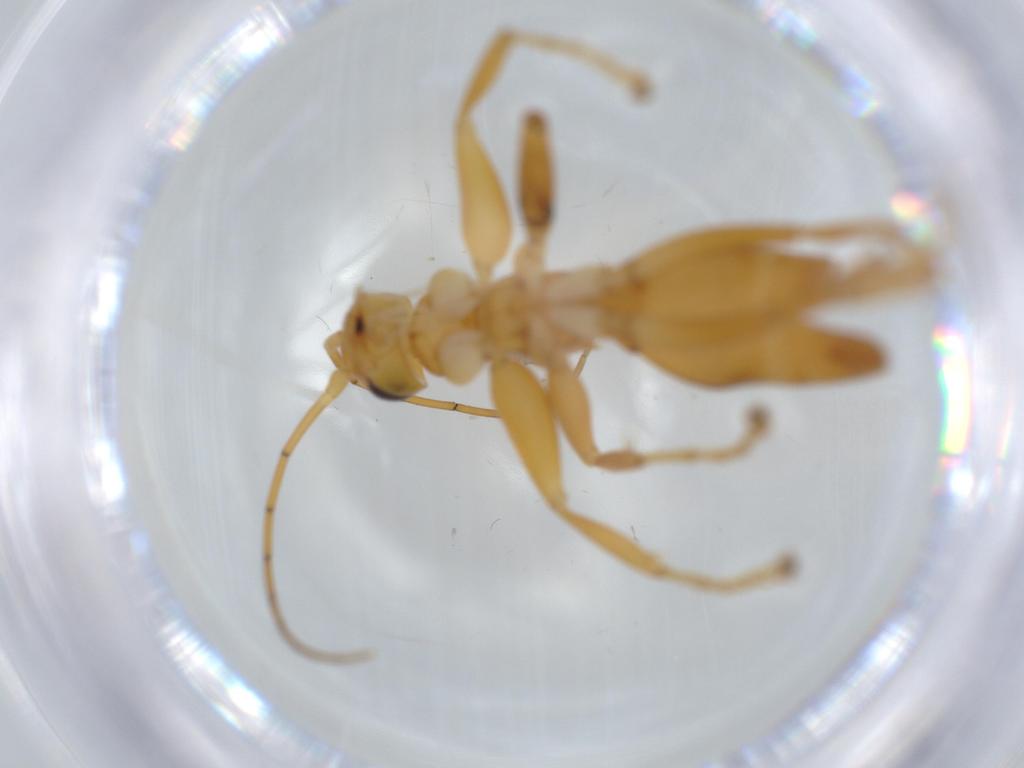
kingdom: Animalia
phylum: Arthropoda
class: Insecta
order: Hymenoptera
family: Rhopalosomatidae
